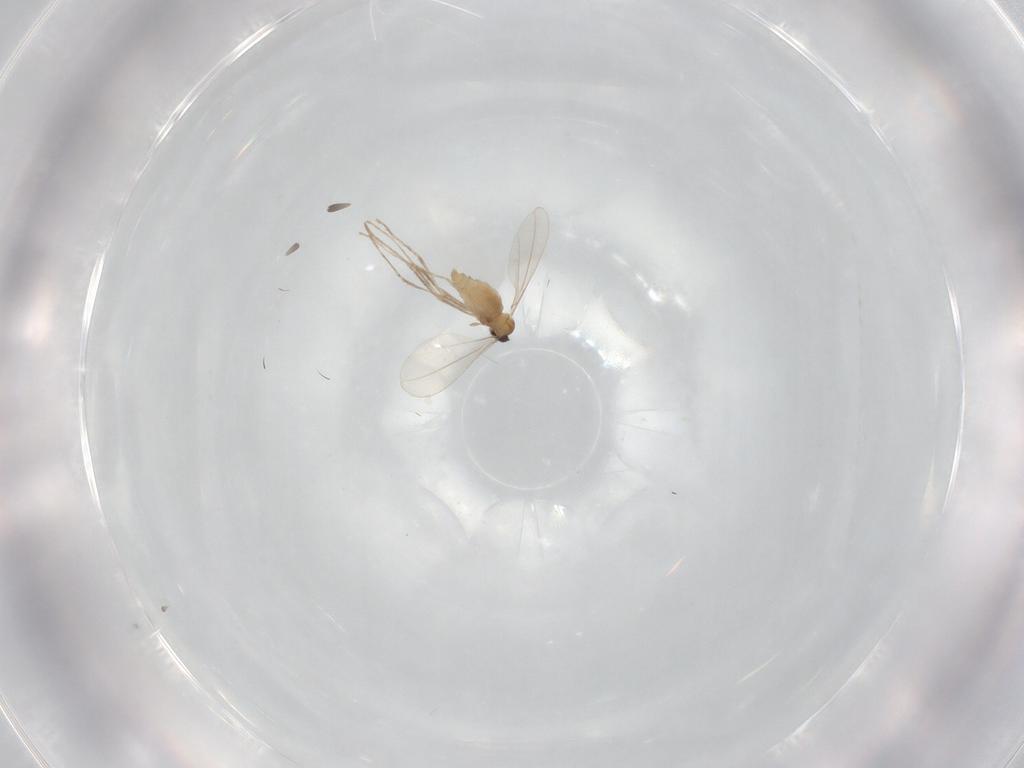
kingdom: Animalia
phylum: Arthropoda
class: Insecta
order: Diptera
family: Cecidomyiidae
